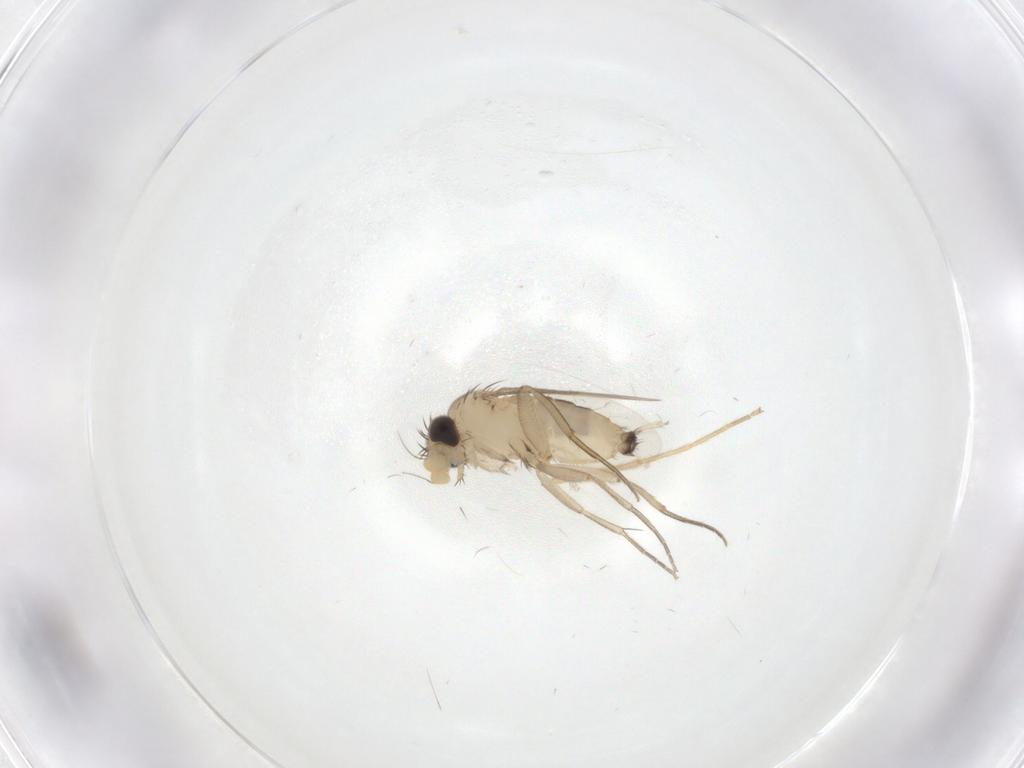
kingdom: Animalia
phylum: Arthropoda
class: Insecta
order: Diptera
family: Phoridae
